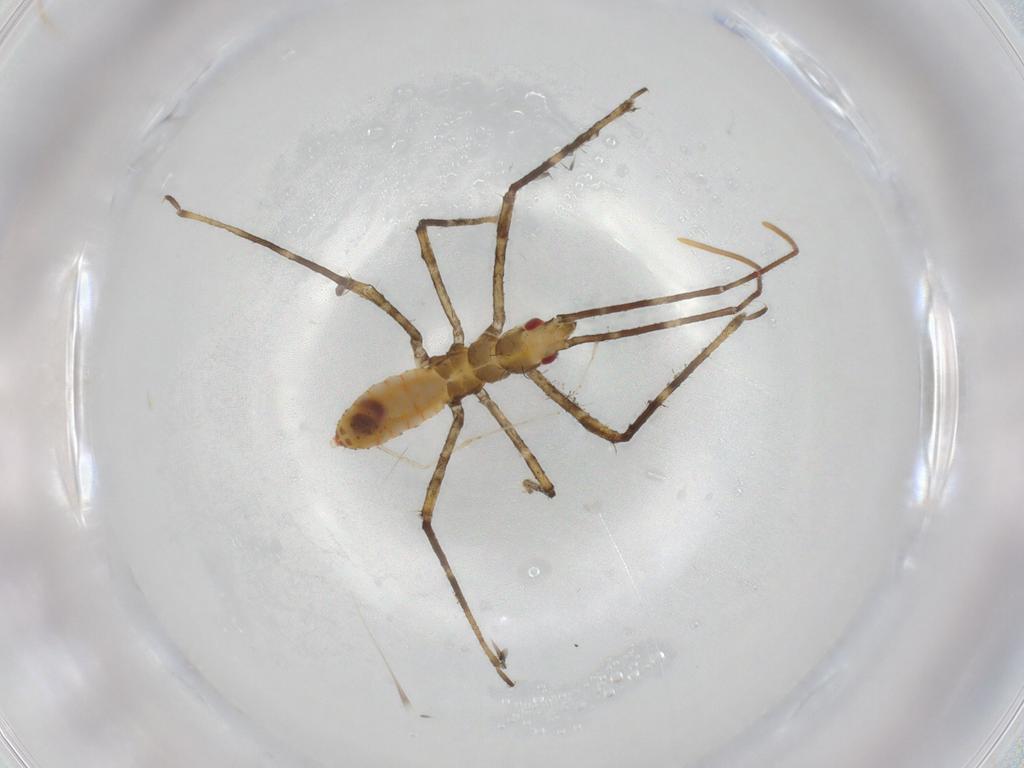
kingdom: Animalia
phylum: Arthropoda
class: Insecta
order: Hemiptera
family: Reduviidae
